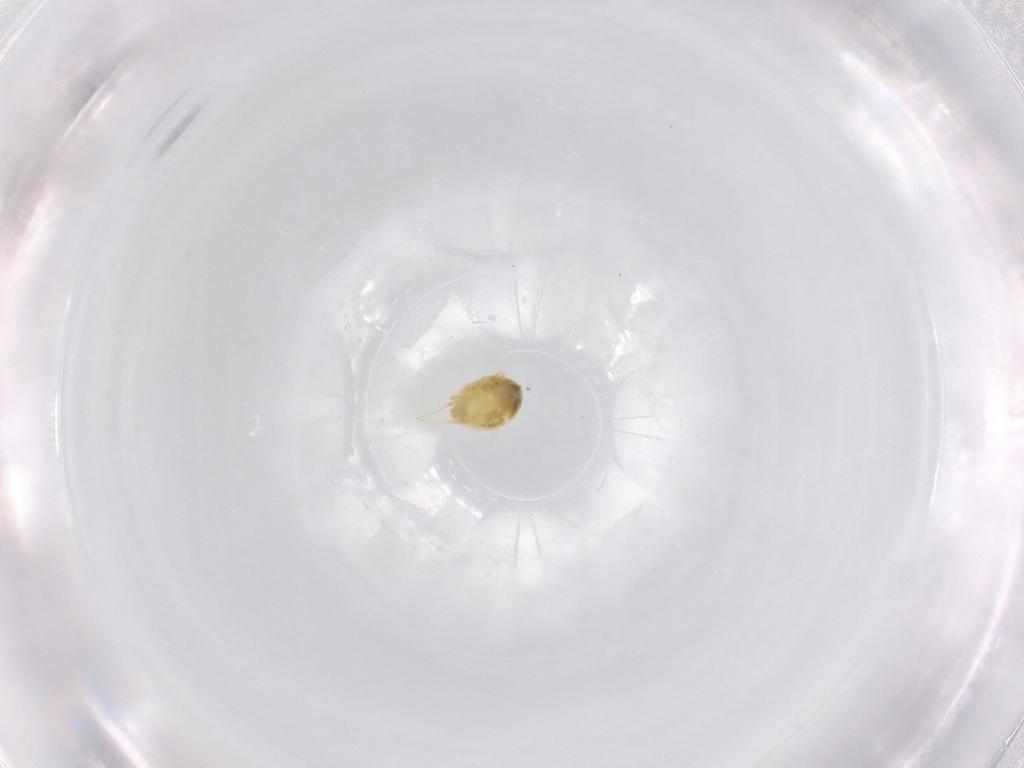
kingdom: Animalia
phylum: Arthropoda
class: Arachnida
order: Trombidiformes
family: Tetranychidae
